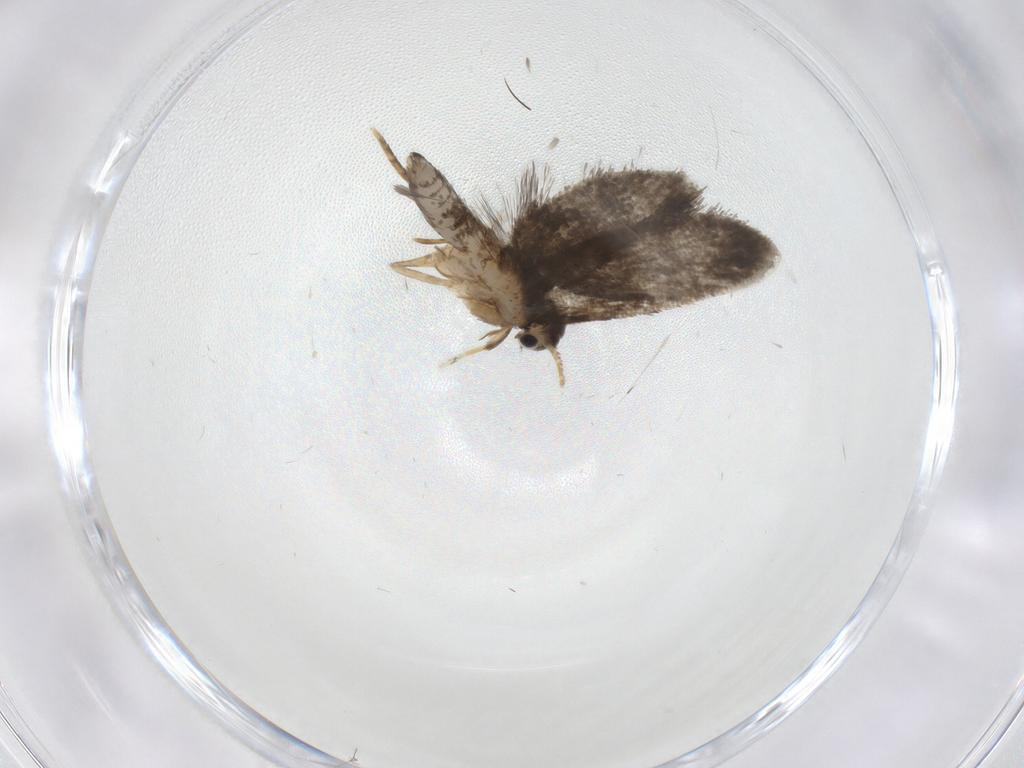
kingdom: Animalia
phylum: Arthropoda
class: Insecta
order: Lepidoptera
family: Psychidae
